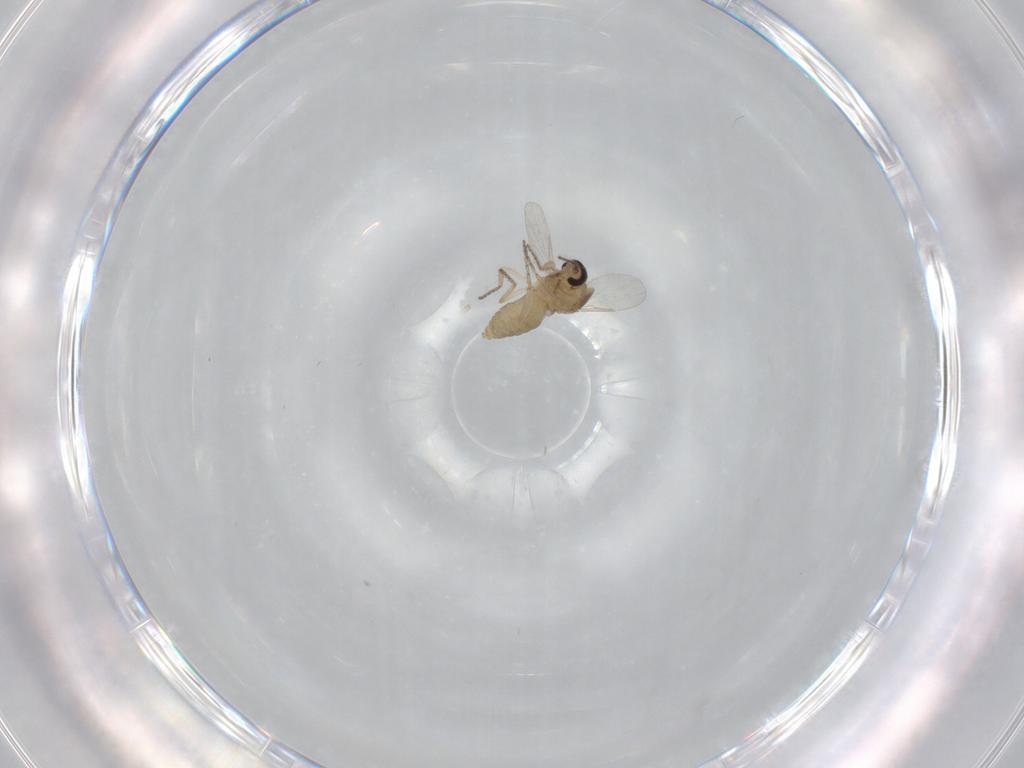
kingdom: Animalia
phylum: Arthropoda
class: Insecta
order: Diptera
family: Ceratopogonidae
